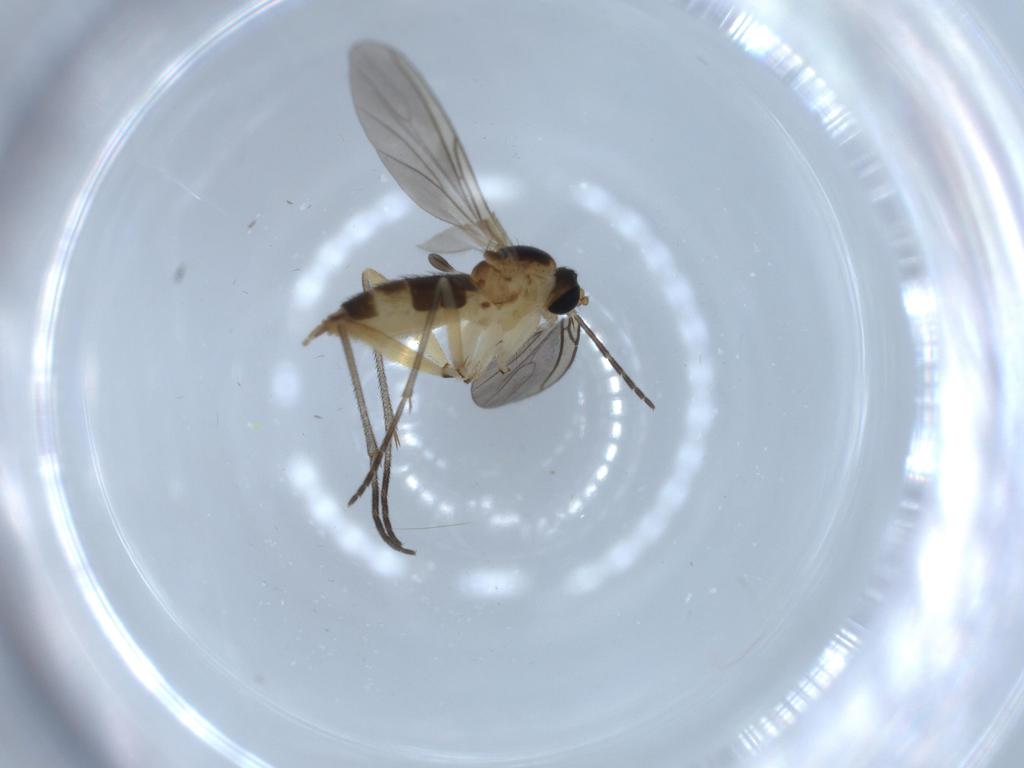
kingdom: Animalia
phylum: Arthropoda
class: Insecta
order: Diptera
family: Sciaridae
